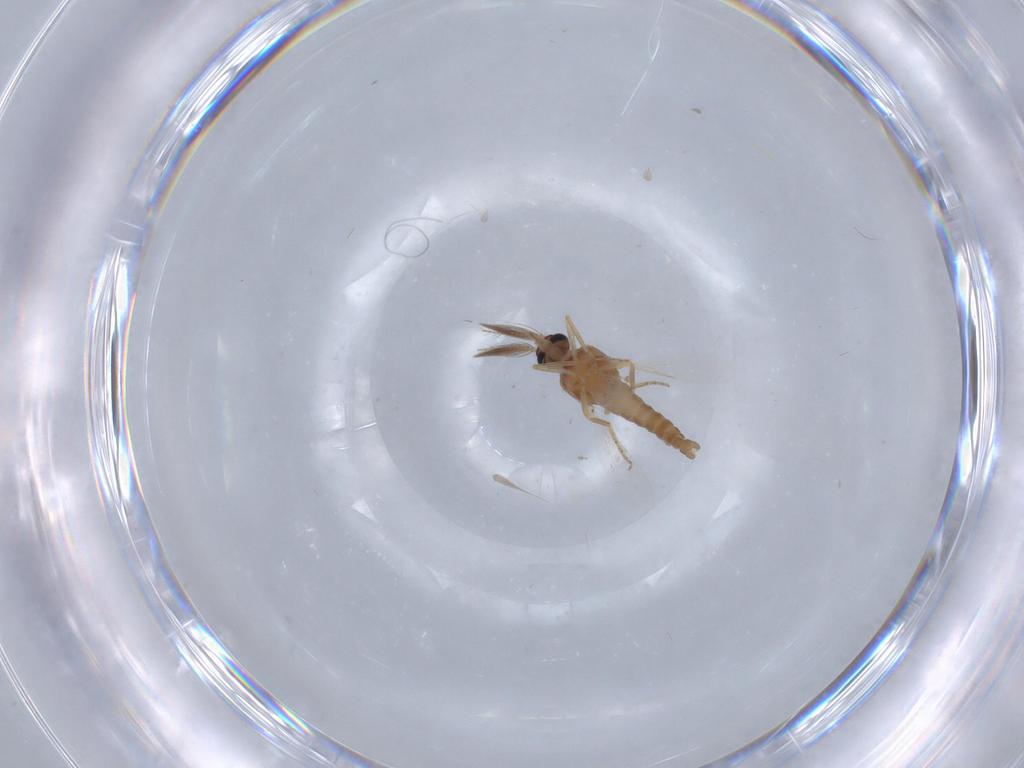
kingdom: Animalia
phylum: Arthropoda
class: Insecta
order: Diptera
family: Ceratopogonidae
